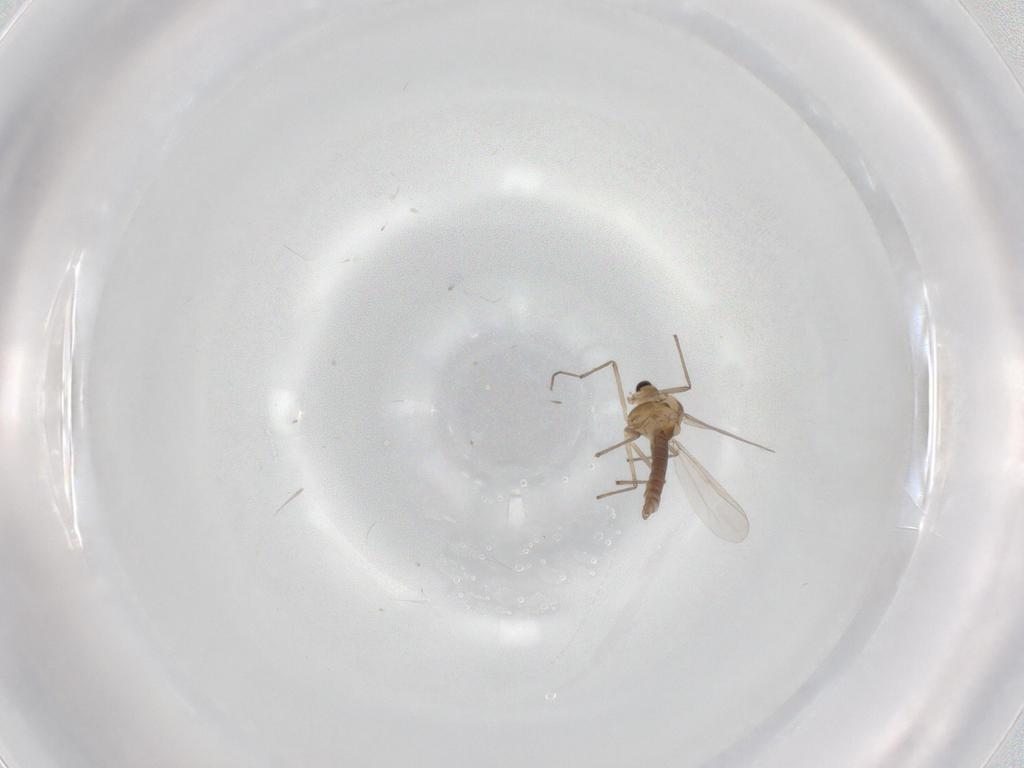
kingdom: Animalia
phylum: Arthropoda
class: Insecta
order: Diptera
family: Chironomidae
